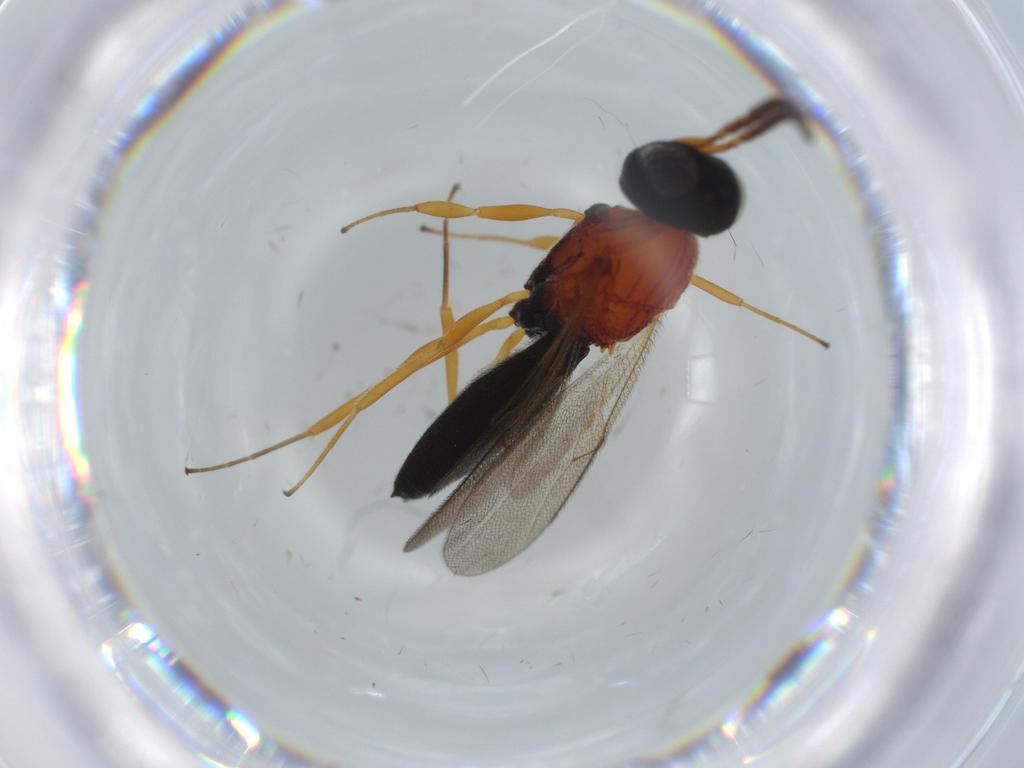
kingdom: Animalia
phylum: Arthropoda
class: Insecta
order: Hymenoptera
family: Scelionidae
